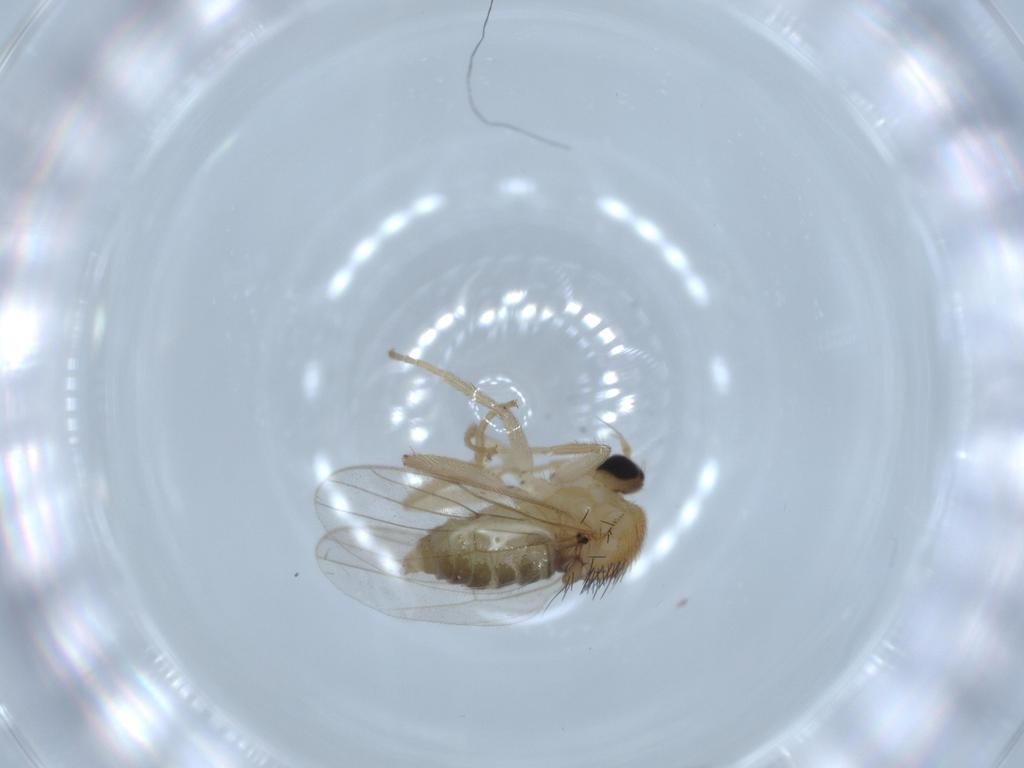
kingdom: Animalia
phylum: Arthropoda
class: Insecta
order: Diptera
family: Hybotidae
